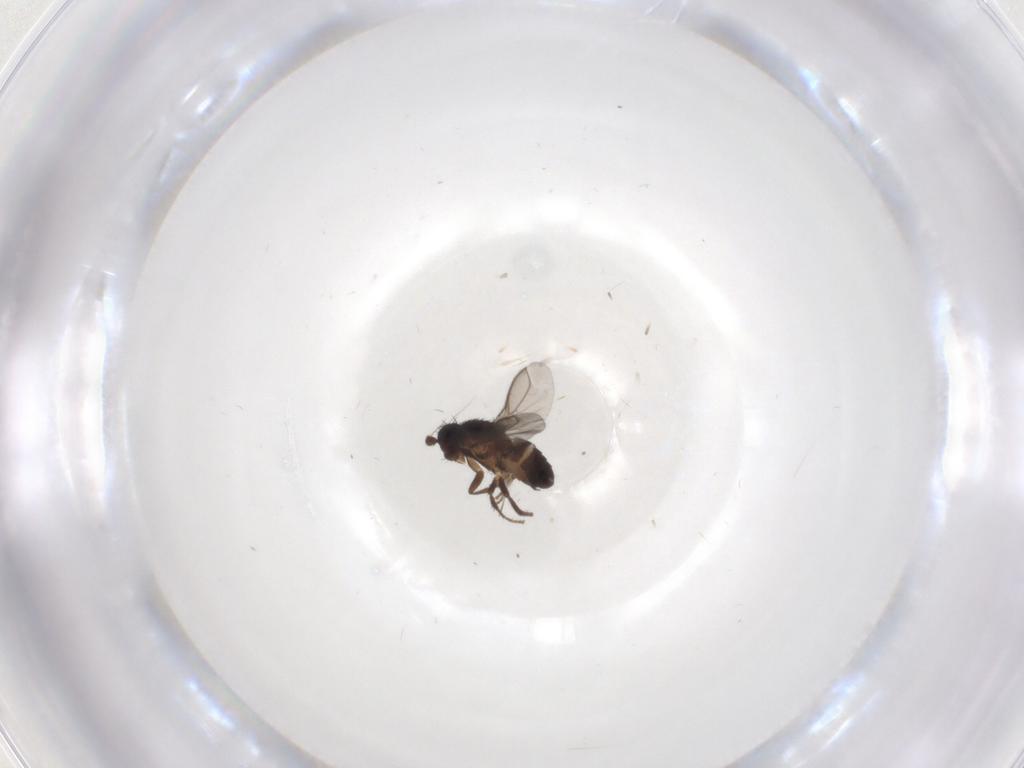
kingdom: Animalia
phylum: Arthropoda
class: Insecta
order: Diptera
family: Sphaeroceridae
